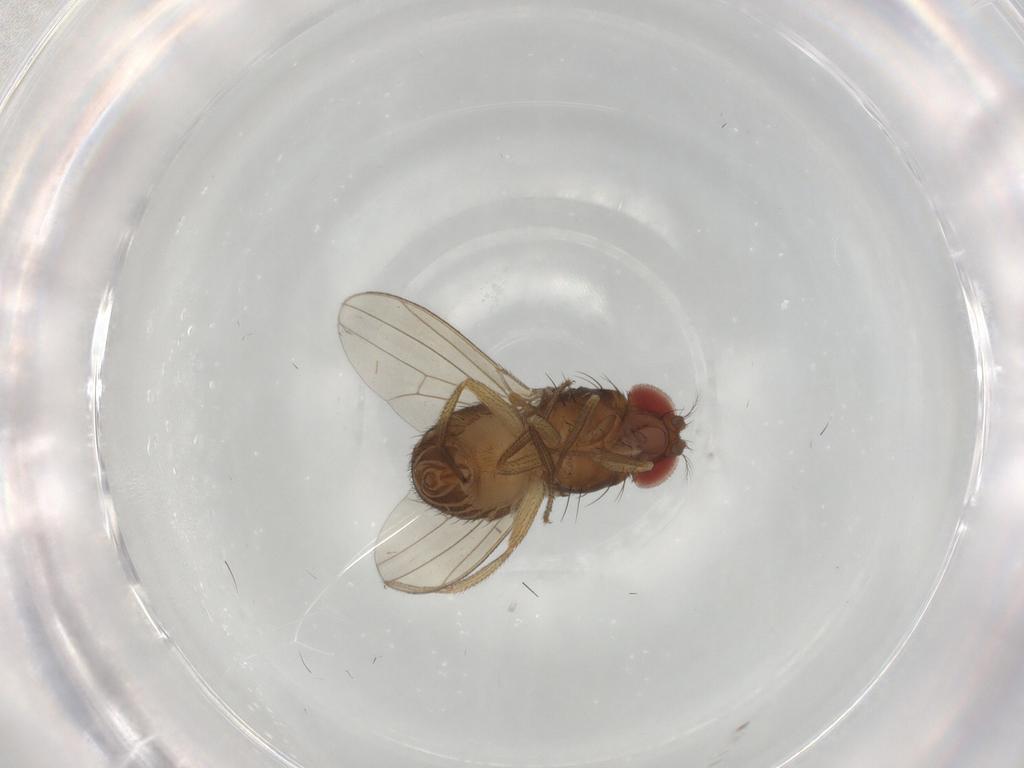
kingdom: Animalia
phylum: Arthropoda
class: Insecta
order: Diptera
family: Drosophilidae
